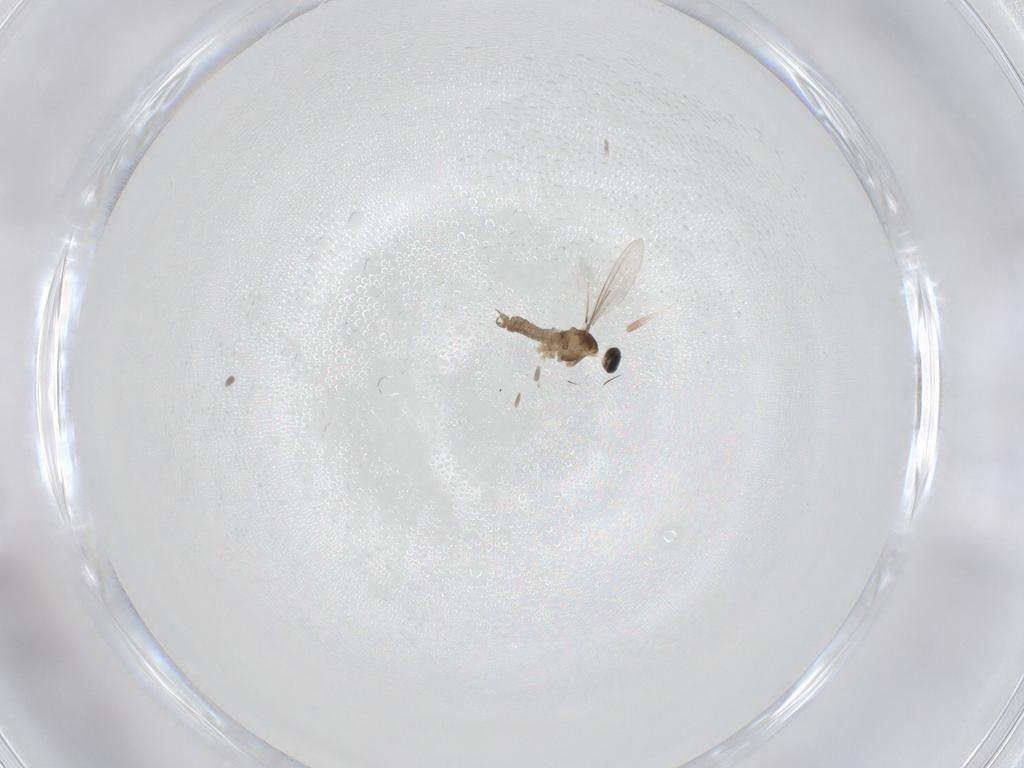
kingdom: Animalia
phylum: Arthropoda
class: Insecta
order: Diptera
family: Cecidomyiidae
